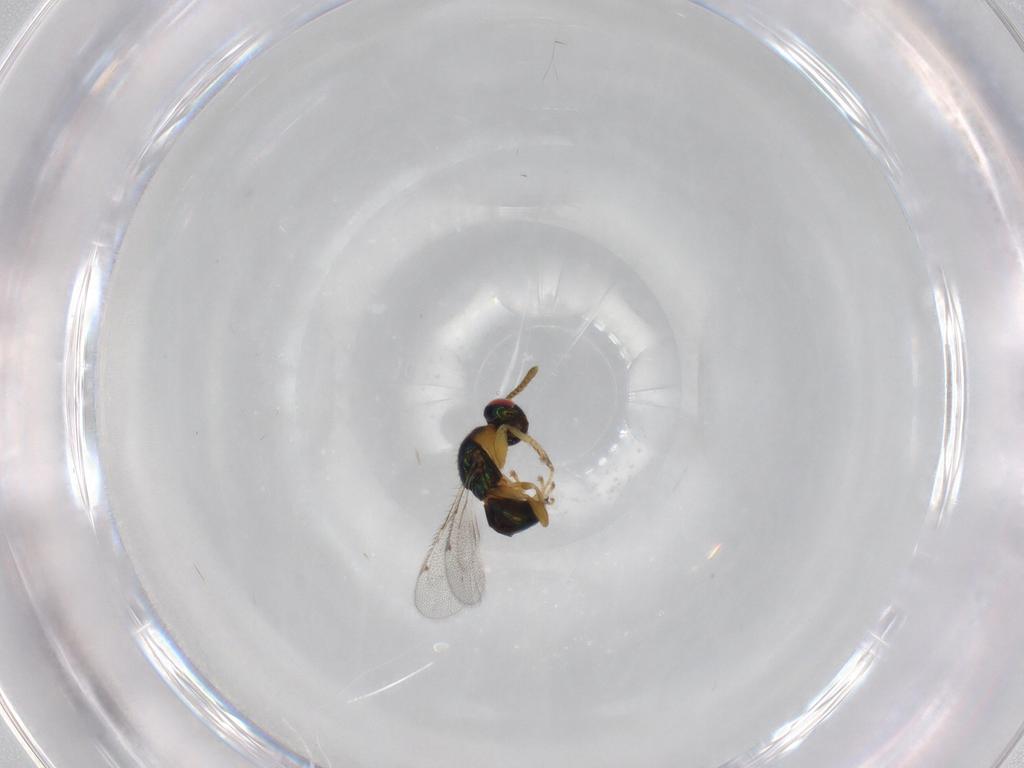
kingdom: Animalia
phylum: Arthropoda
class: Insecta
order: Hymenoptera
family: Torymidae
